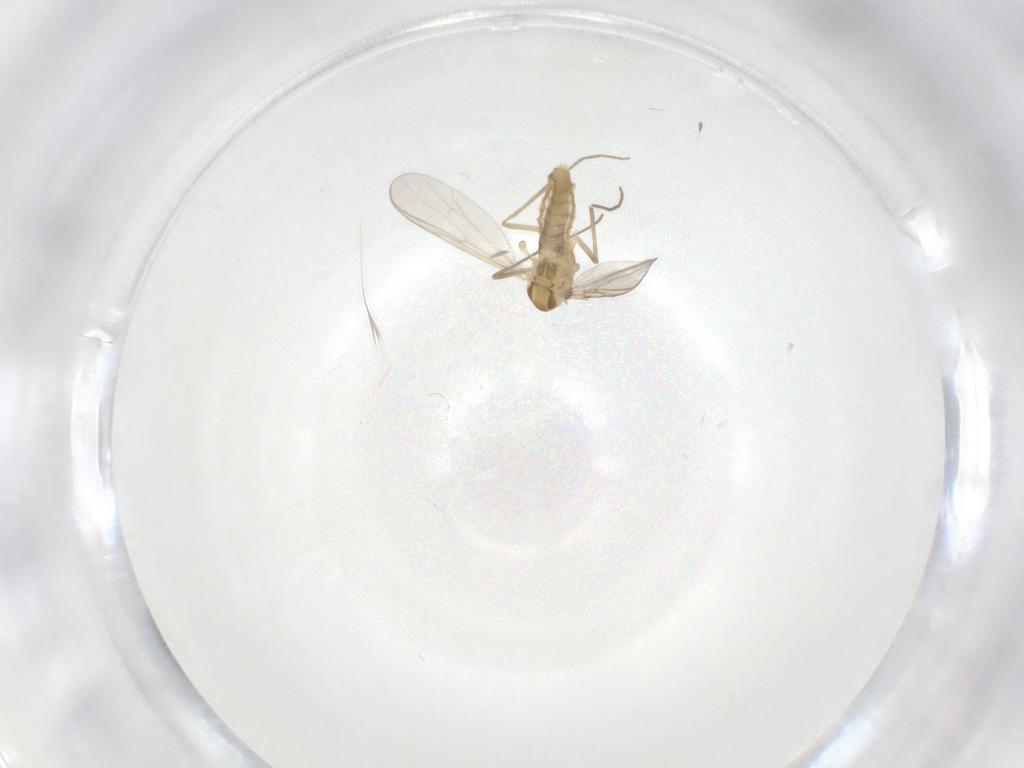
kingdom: Animalia
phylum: Arthropoda
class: Insecta
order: Diptera
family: Chironomidae
